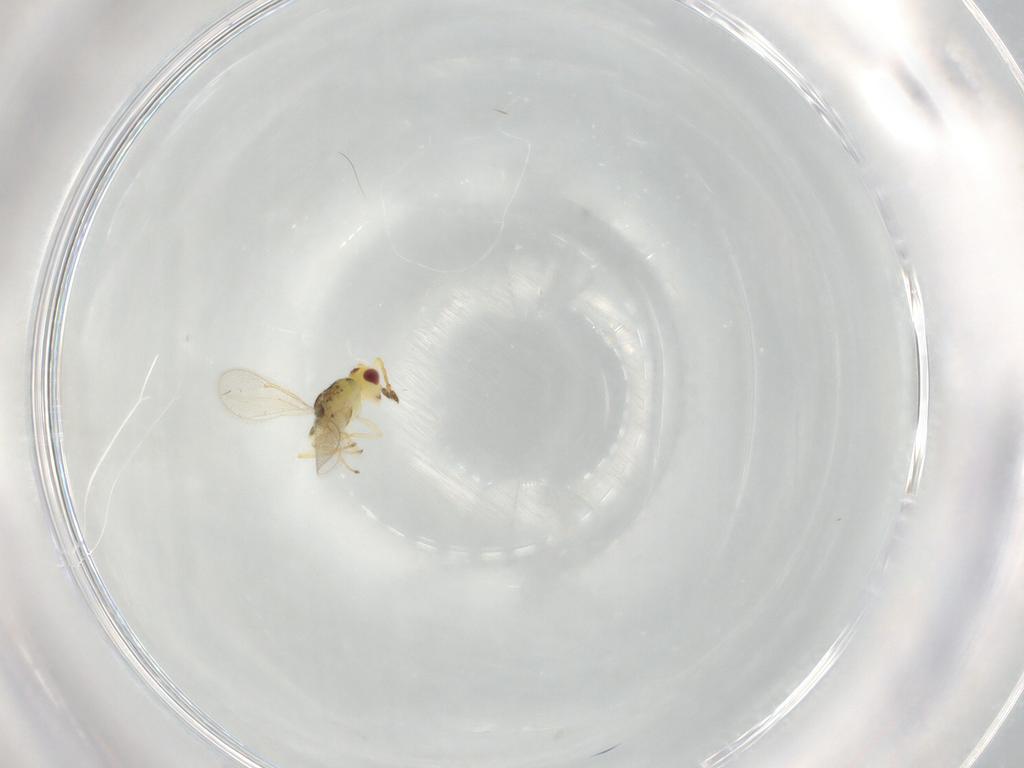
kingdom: Animalia
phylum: Arthropoda
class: Insecta
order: Hymenoptera
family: Eulophidae
